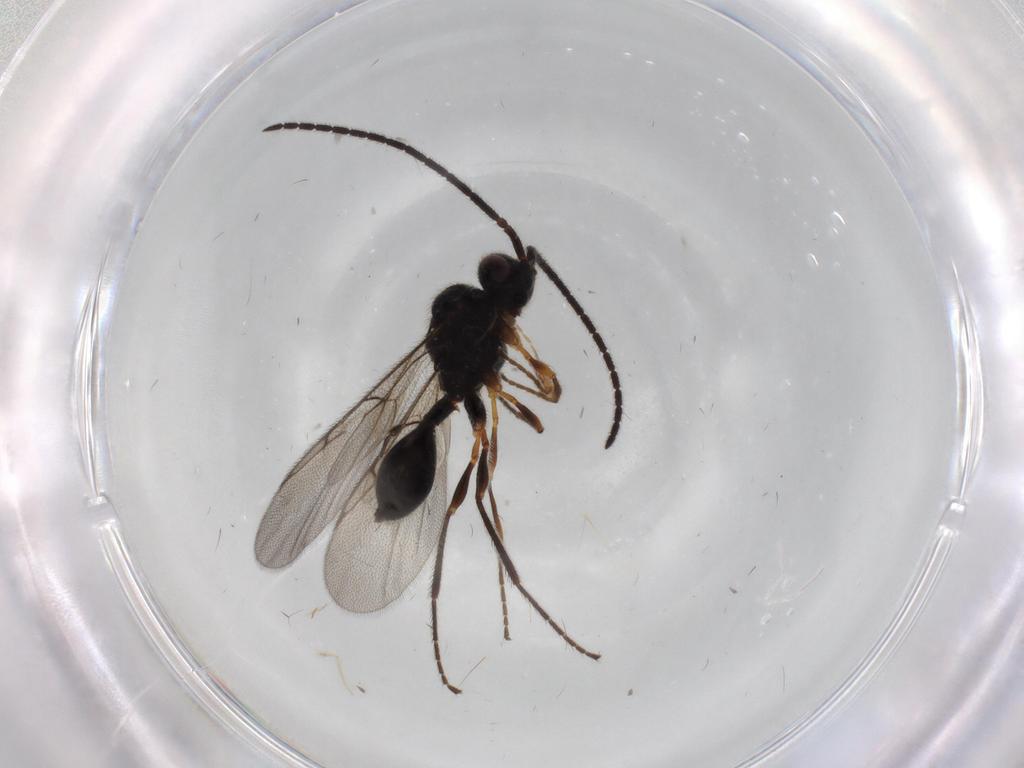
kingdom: Animalia
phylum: Arthropoda
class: Insecta
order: Hymenoptera
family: Diapriidae
